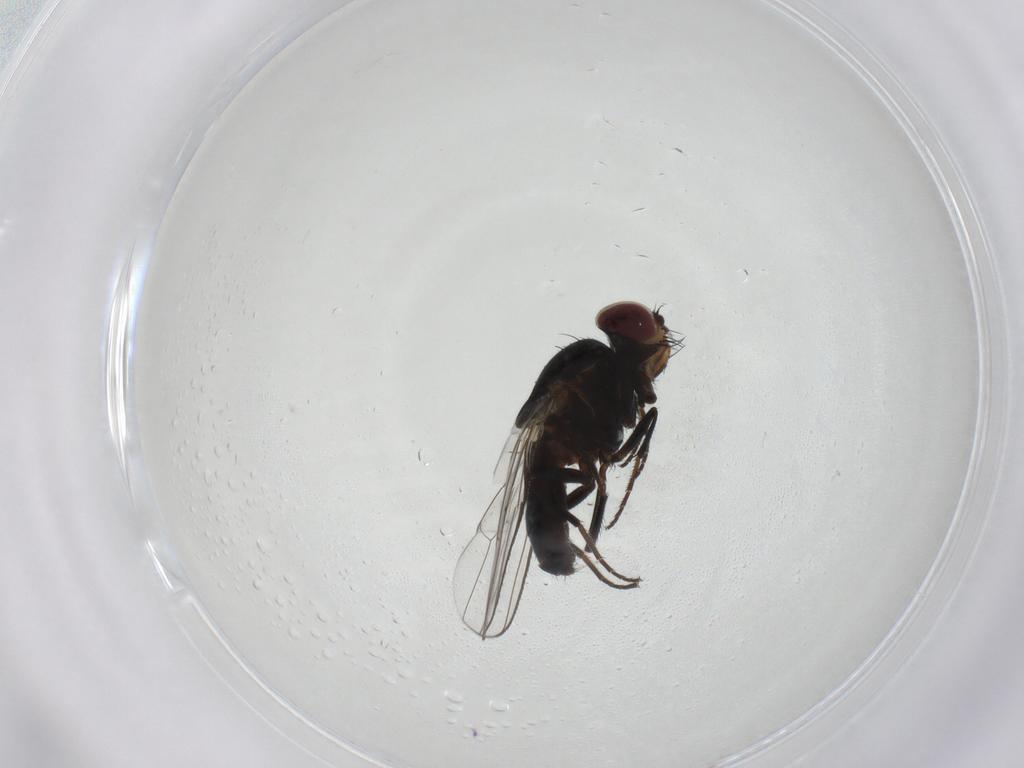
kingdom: Animalia
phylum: Arthropoda
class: Insecta
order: Diptera
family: Carnidae
